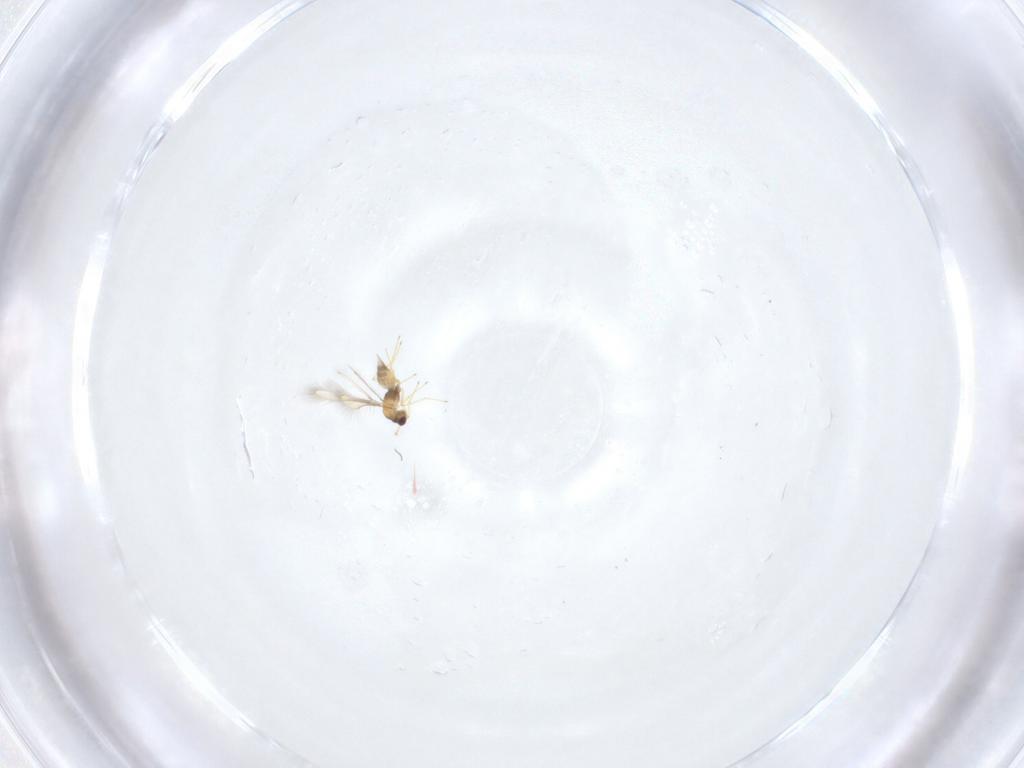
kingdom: Animalia
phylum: Arthropoda
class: Insecta
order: Hymenoptera
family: Mymaridae
